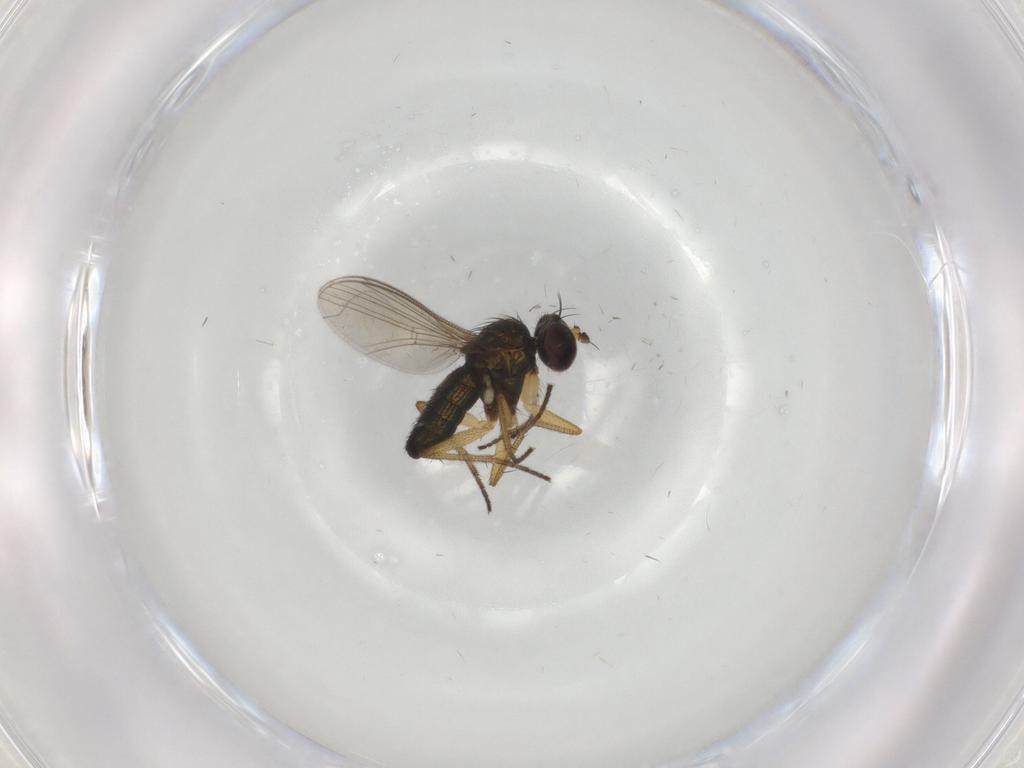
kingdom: Animalia
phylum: Arthropoda
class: Insecta
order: Diptera
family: Dolichopodidae
